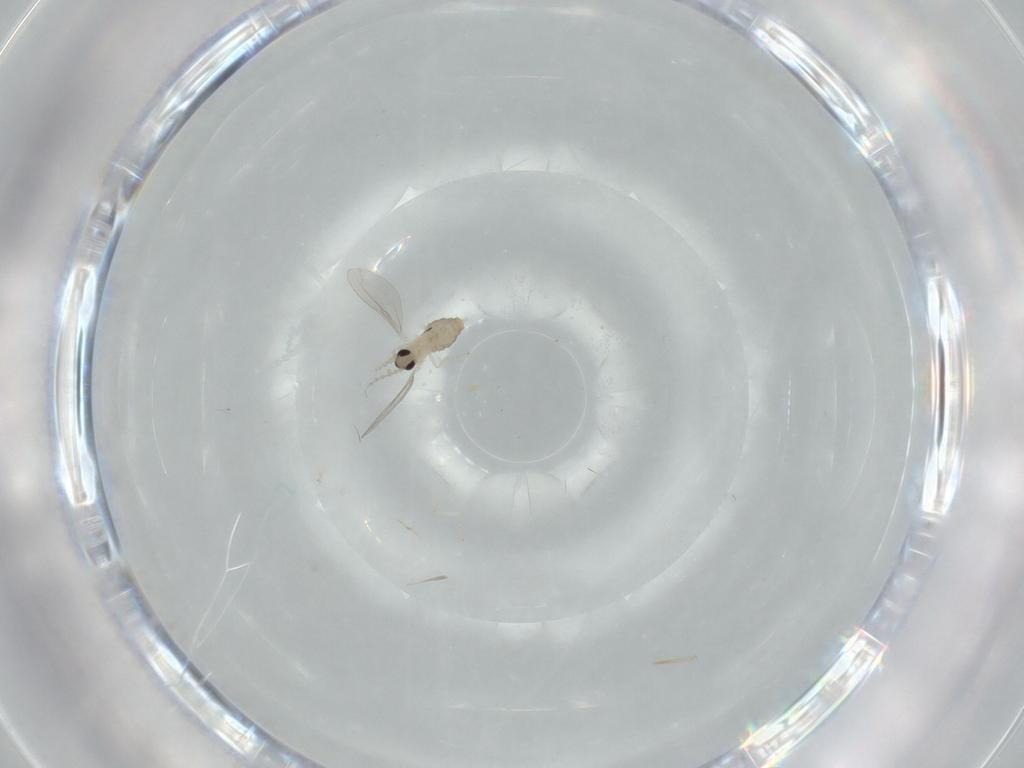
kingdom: Animalia
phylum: Arthropoda
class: Insecta
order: Diptera
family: Cecidomyiidae
